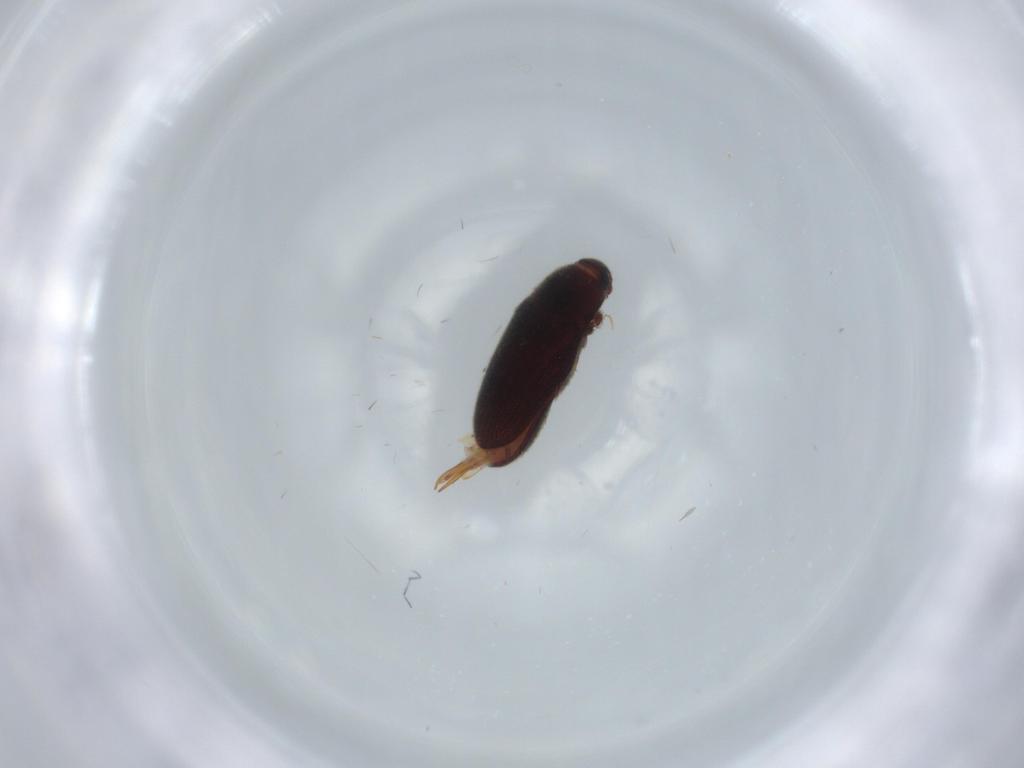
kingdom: Animalia
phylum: Arthropoda
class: Insecta
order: Coleoptera
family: Throscidae
